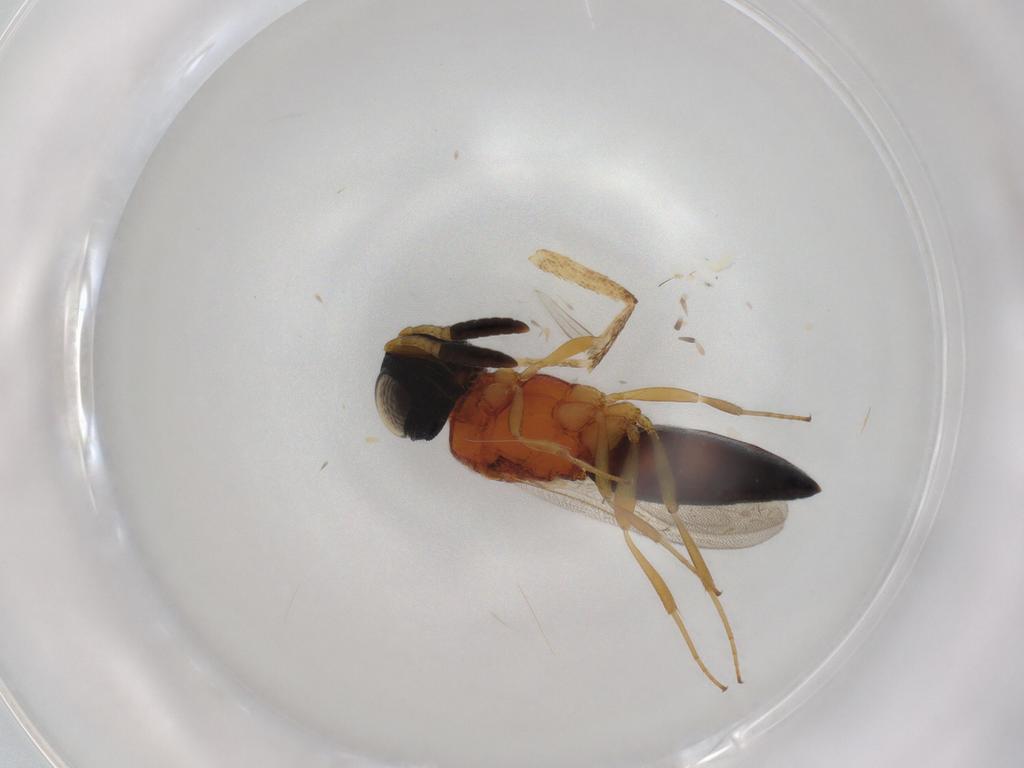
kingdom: Animalia
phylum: Arthropoda
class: Insecta
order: Hymenoptera
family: Scelionidae
